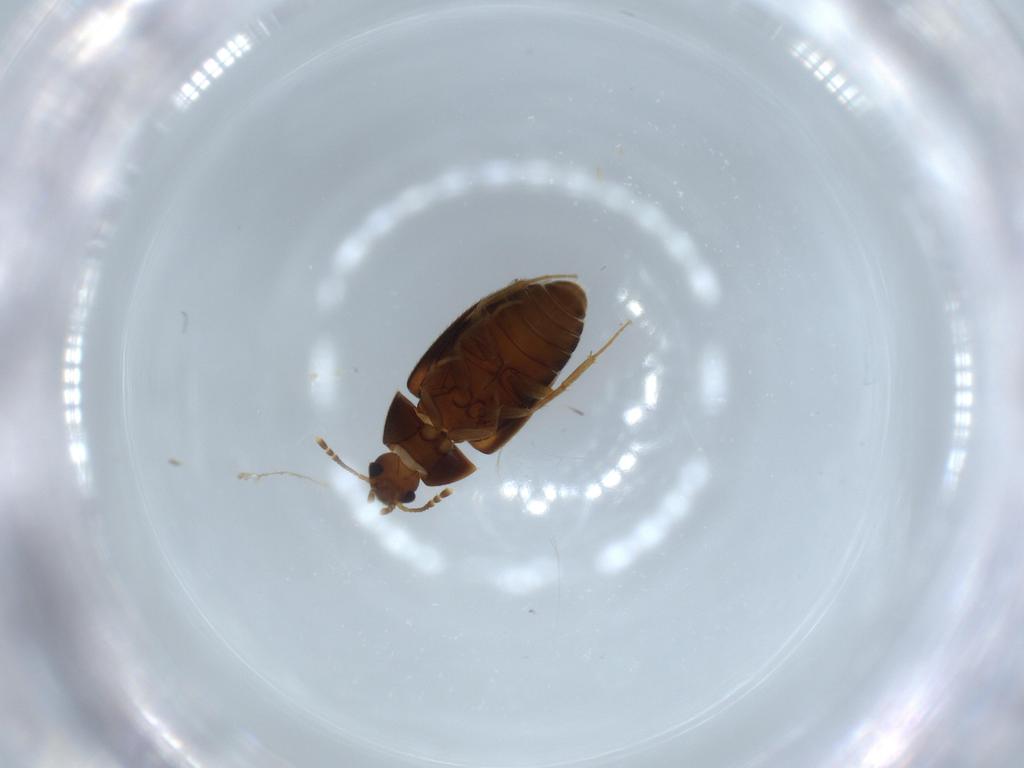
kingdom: Animalia
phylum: Arthropoda
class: Insecta
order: Coleoptera
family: Mycetophagidae
